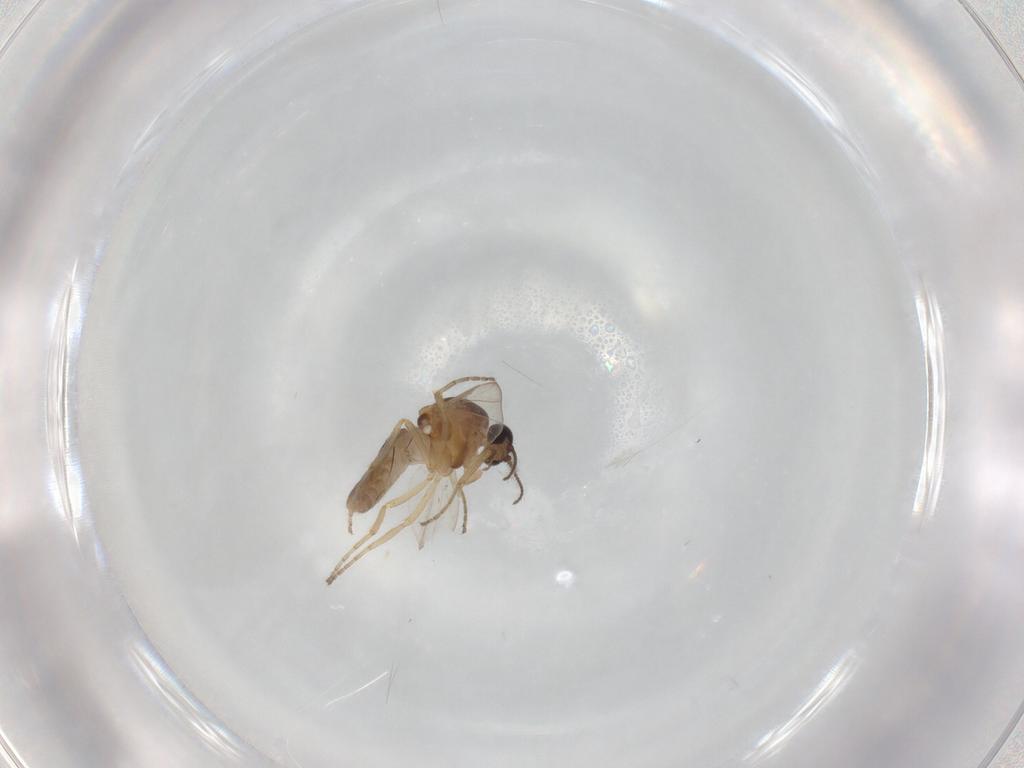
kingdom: Animalia
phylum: Arthropoda
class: Insecta
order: Diptera
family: Ceratopogonidae
